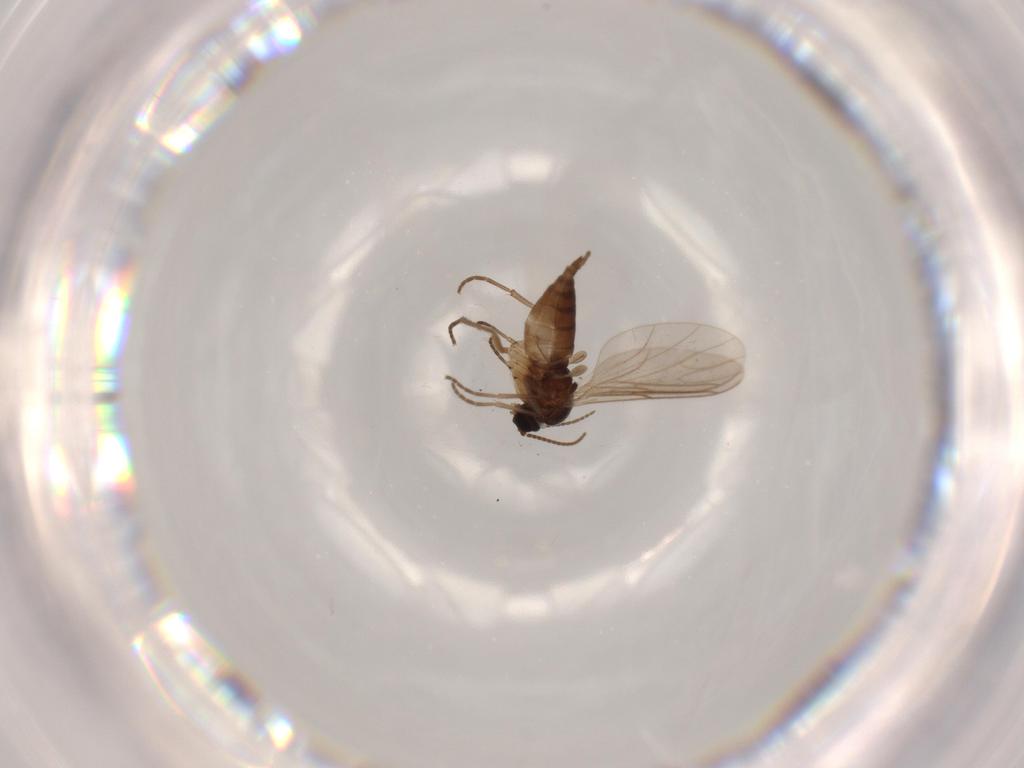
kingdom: Animalia
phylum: Arthropoda
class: Insecta
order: Diptera
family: Sciaridae
